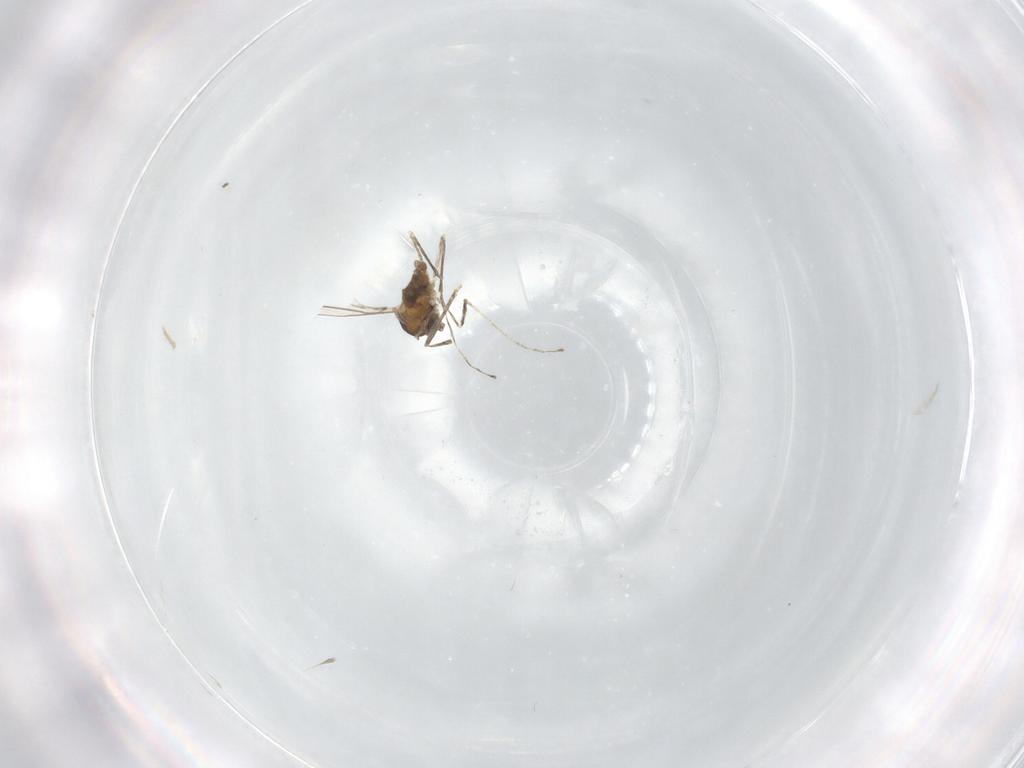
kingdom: Animalia
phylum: Arthropoda
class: Insecta
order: Diptera
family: Cecidomyiidae
